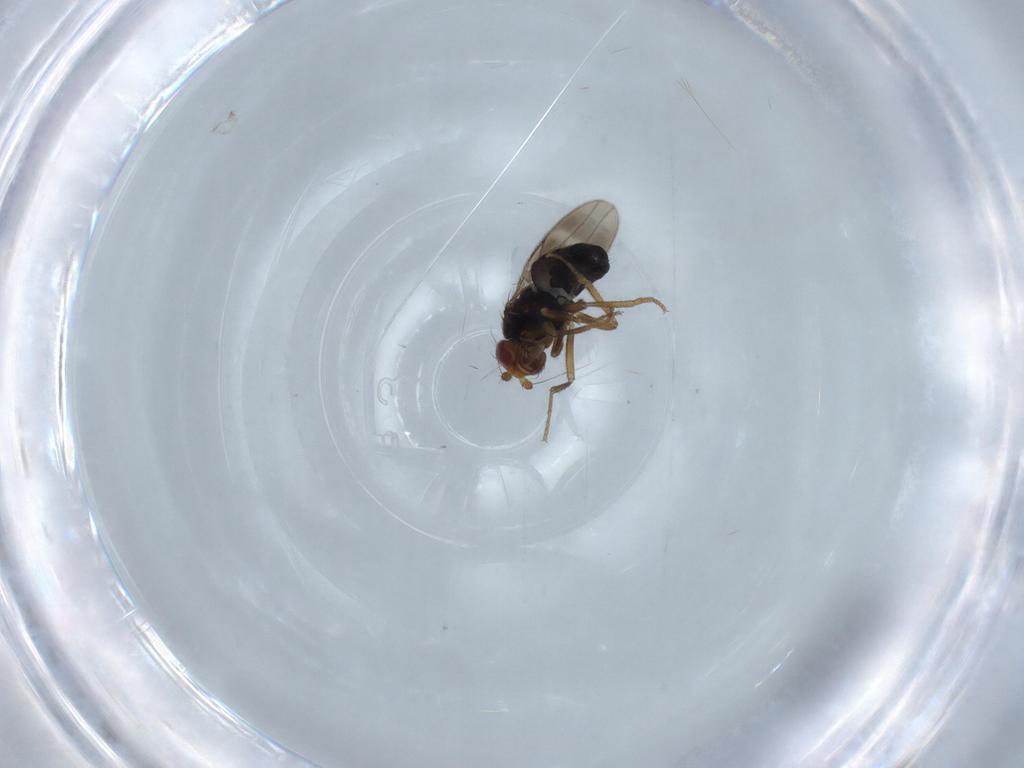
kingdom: Animalia
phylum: Arthropoda
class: Insecta
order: Diptera
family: Sphaeroceridae
